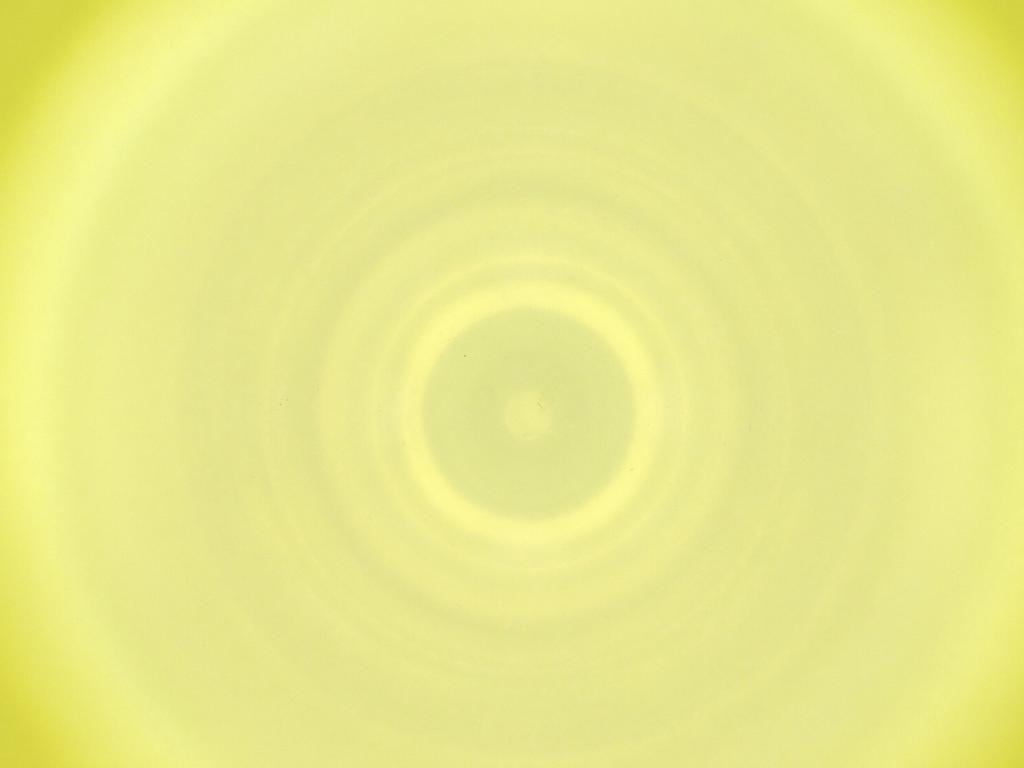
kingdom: Animalia
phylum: Arthropoda
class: Insecta
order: Diptera
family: Cecidomyiidae
